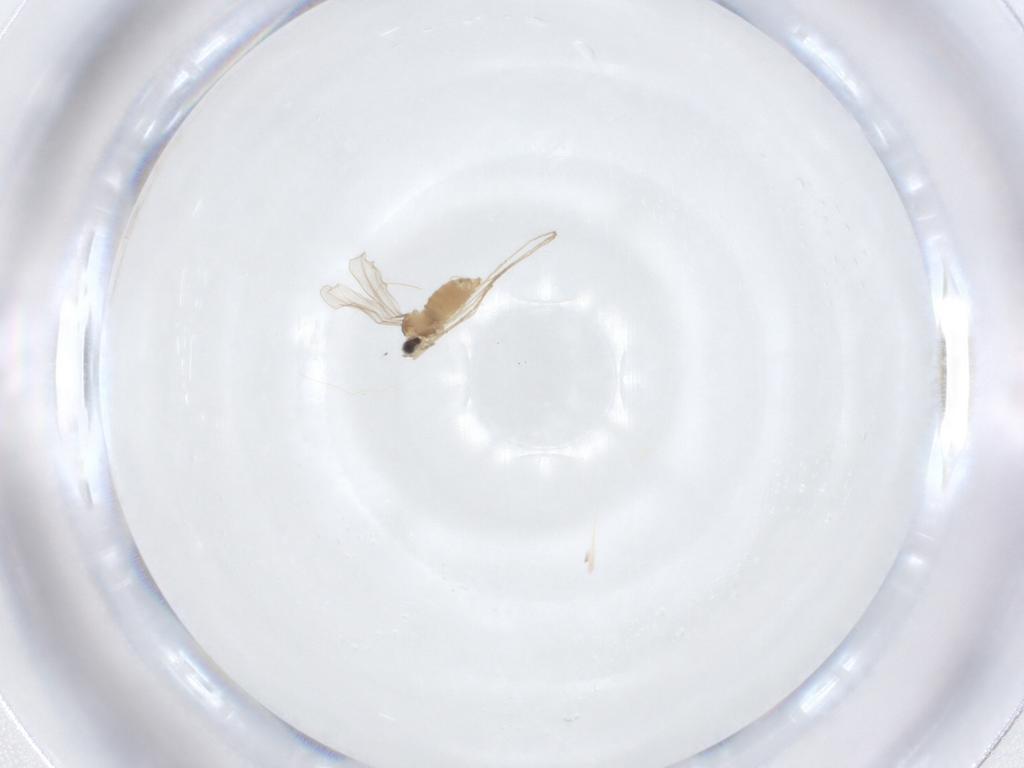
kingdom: Animalia
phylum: Arthropoda
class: Insecta
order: Diptera
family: Chironomidae
